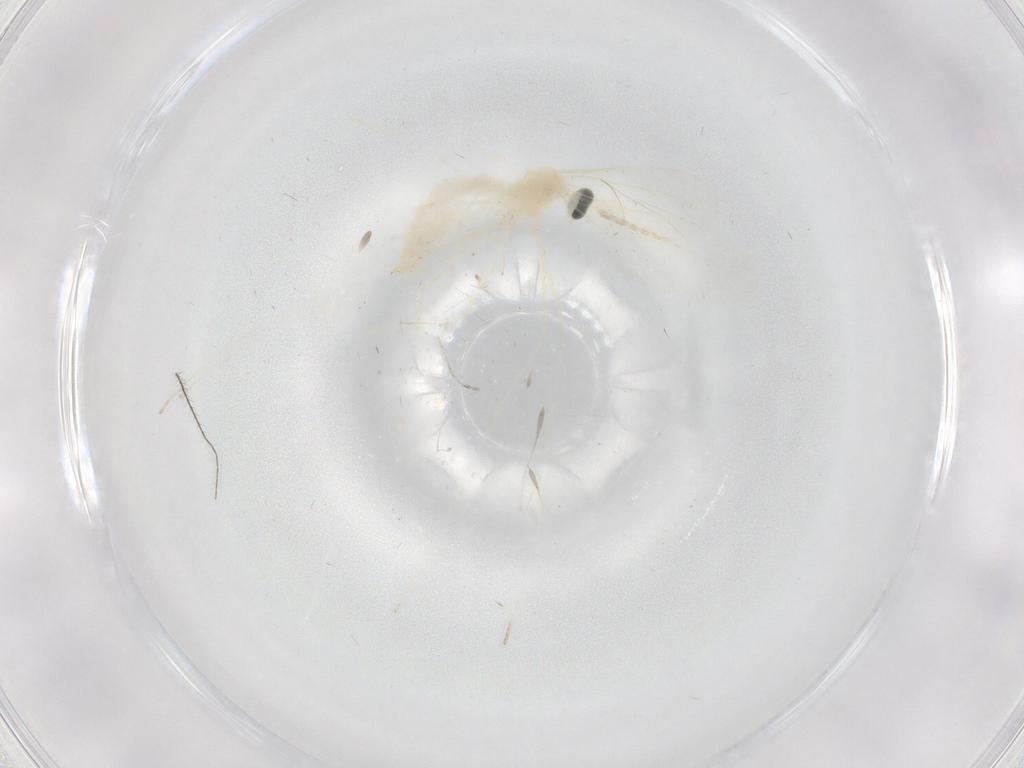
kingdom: Animalia
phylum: Arthropoda
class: Insecta
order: Diptera
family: Cecidomyiidae
